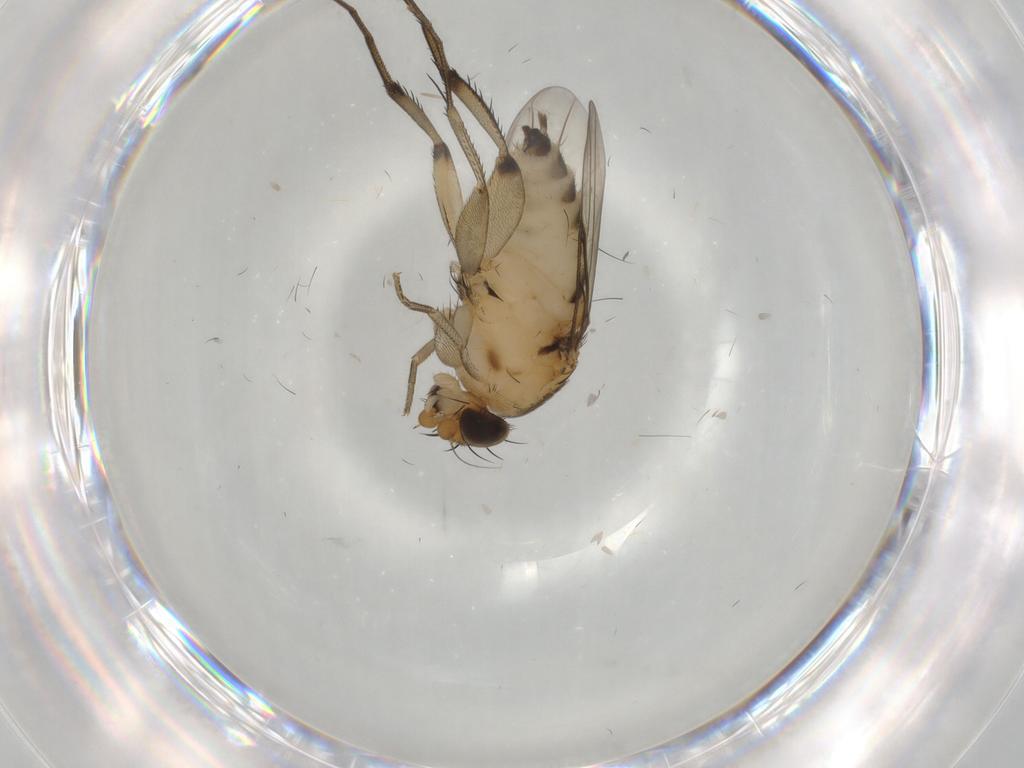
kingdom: Animalia
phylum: Arthropoda
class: Insecta
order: Diptera
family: Phoridae
